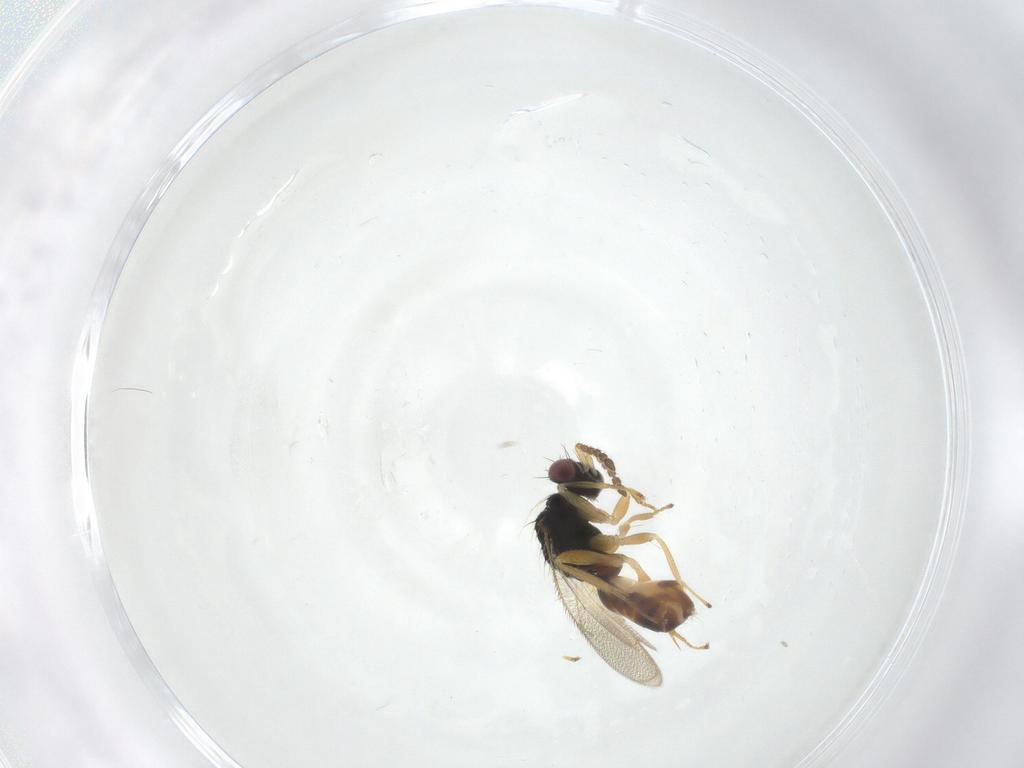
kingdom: Animalia
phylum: Arthropoda
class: Insecta
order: Hymenoptera
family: Eulophidae
